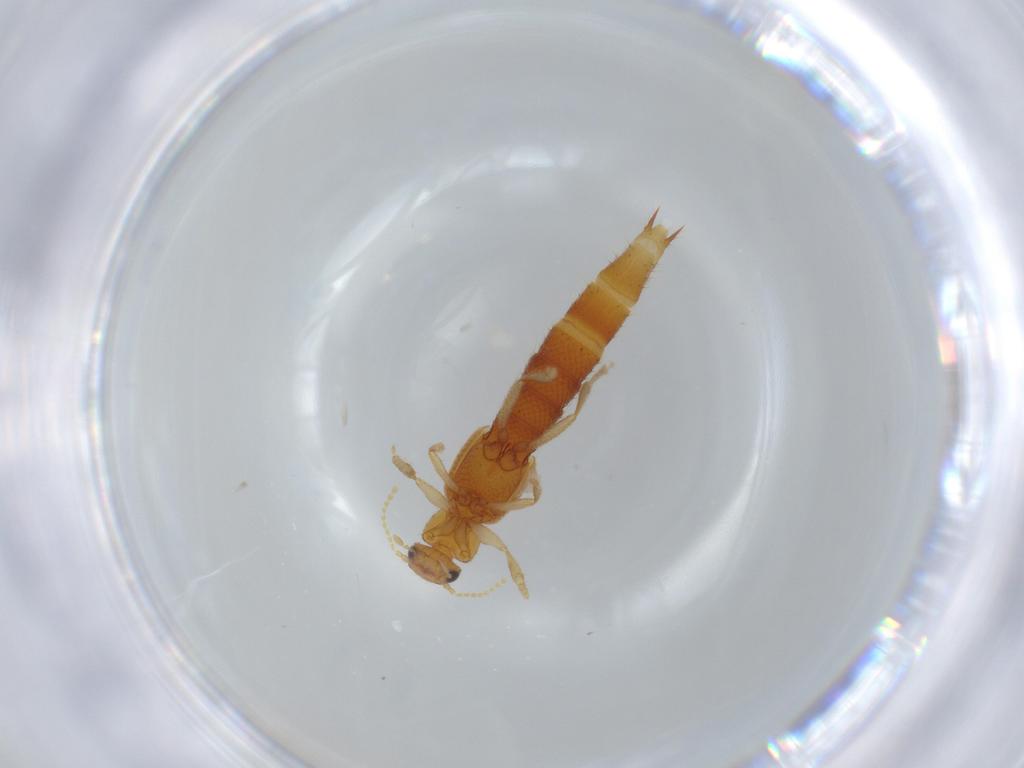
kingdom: Animalia
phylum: Arthropoda
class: Insecta
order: Coleoptera
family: Staphylinidae
